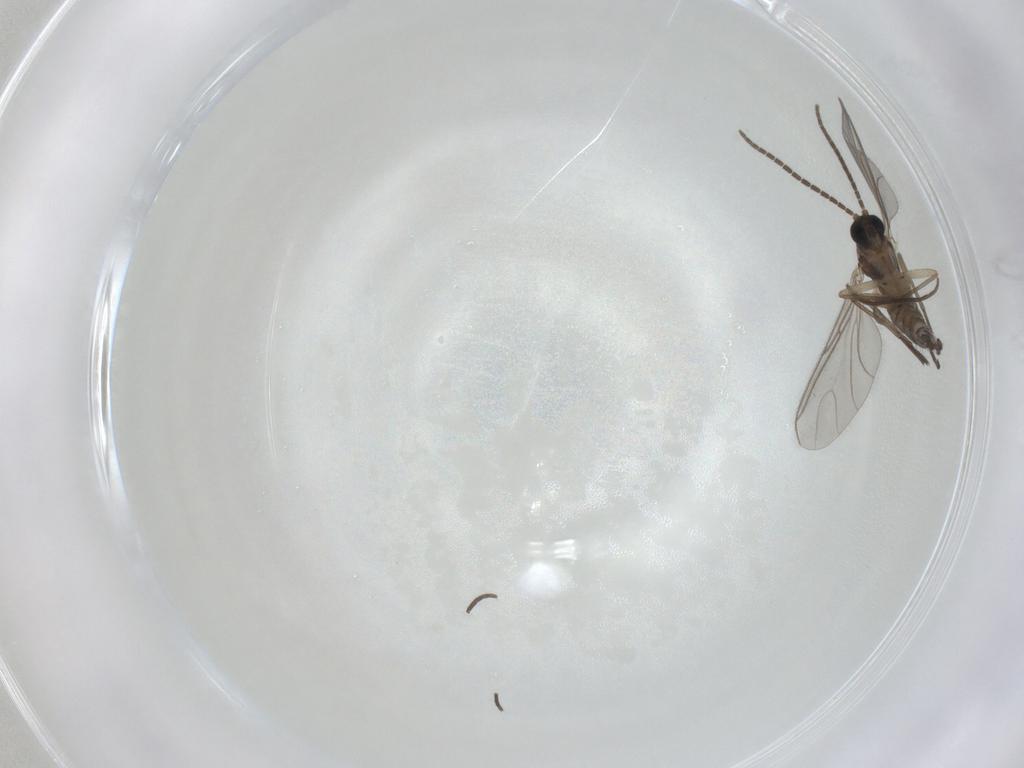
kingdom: Animalia
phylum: Arthropoda
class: Insecta
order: Diptera
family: Sciaridae
